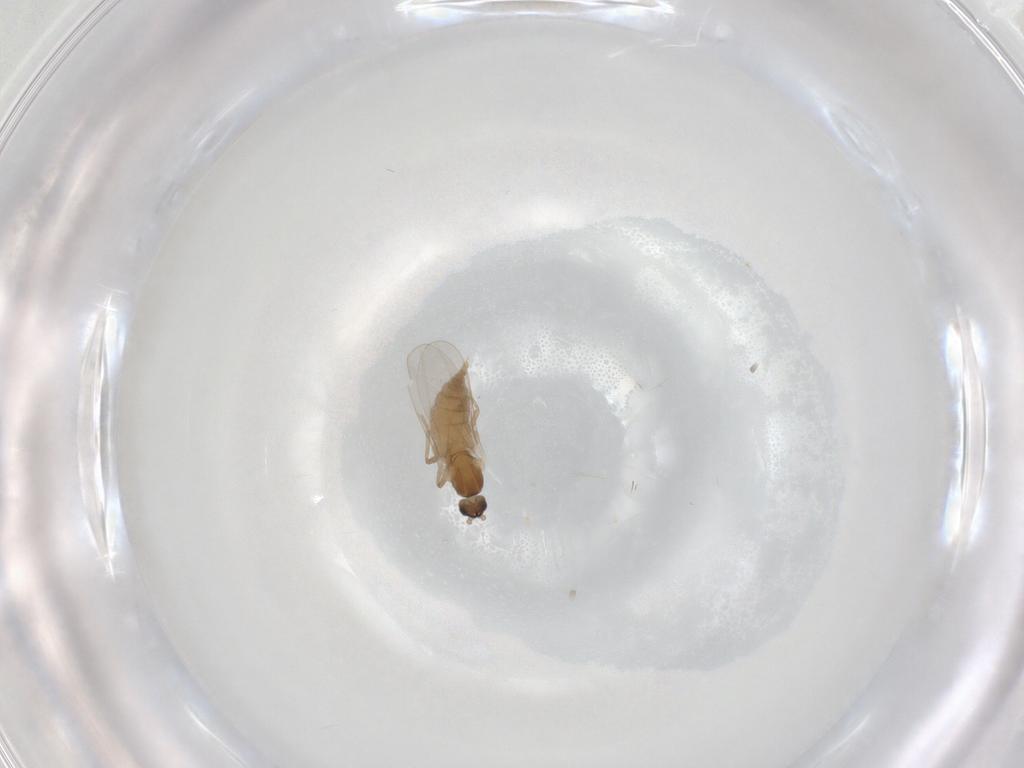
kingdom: Animalia
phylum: Arthropoda
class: Insecta
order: Diptera
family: Cecidomyiidae
